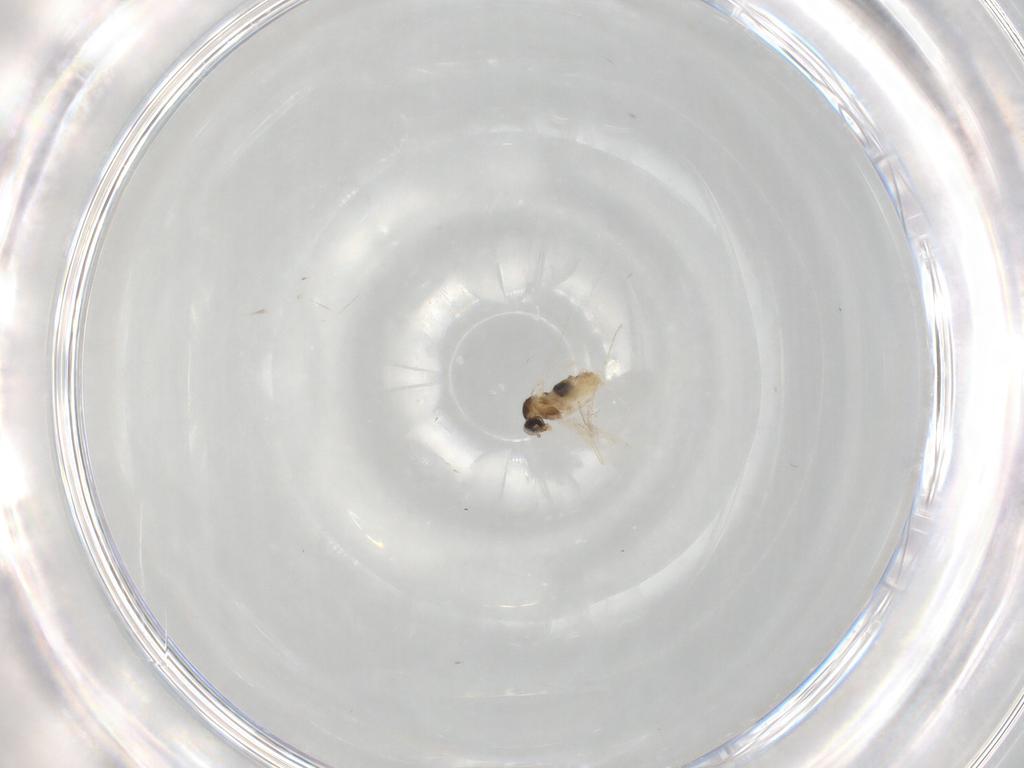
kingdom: Animalia
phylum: Arthropoda
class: Insecta
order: Diptera
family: Cecidomyiidae
